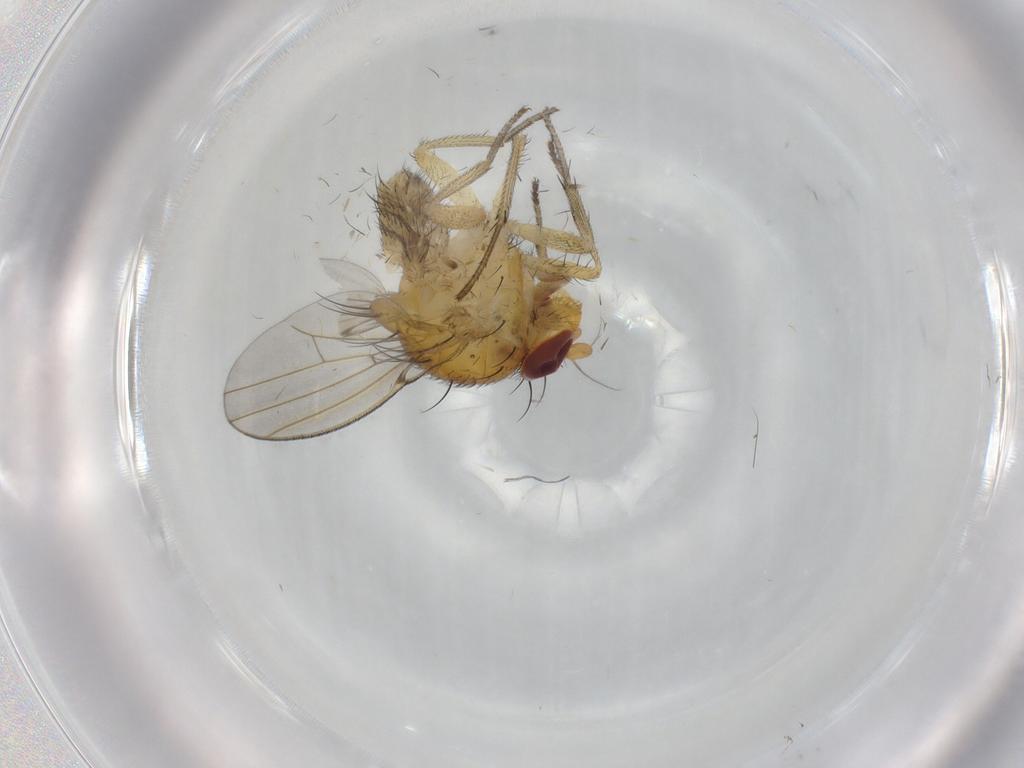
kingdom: Animalia
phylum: Arthropoda
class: Insecta
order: Diptera
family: Lauxaniidae
